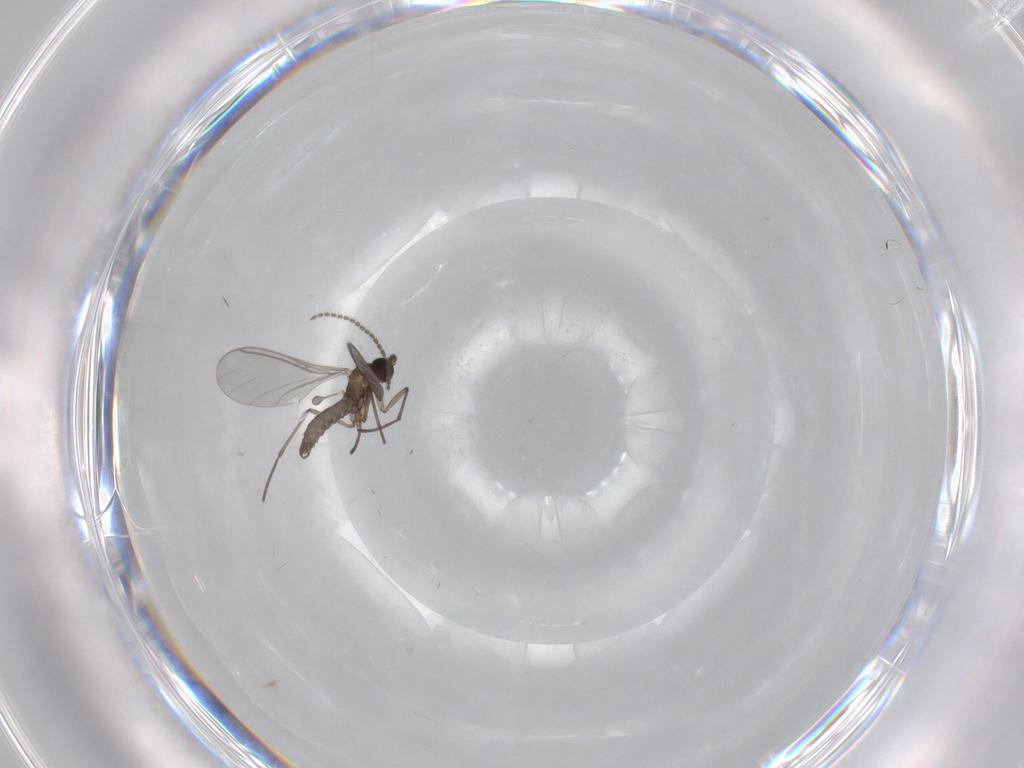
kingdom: Animalia
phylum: Arthropoda
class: Insecta
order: Diptera
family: Sciaridae
